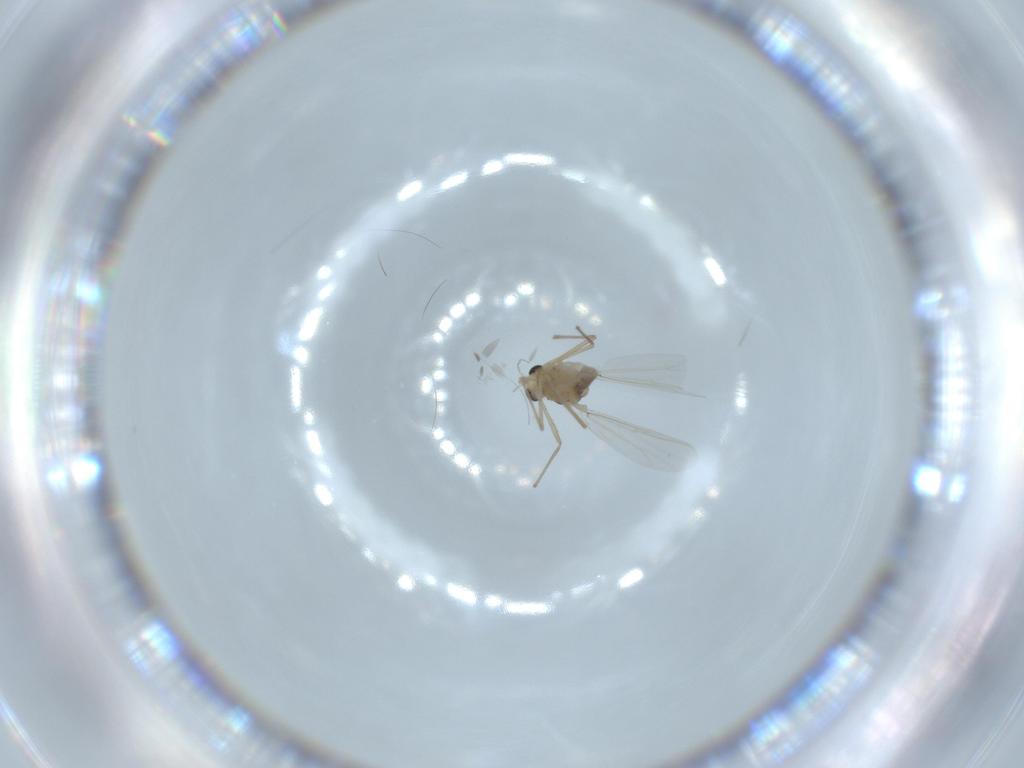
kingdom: Animalia
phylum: Arthropoda
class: Insecta
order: Diptera
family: Chironomidae
